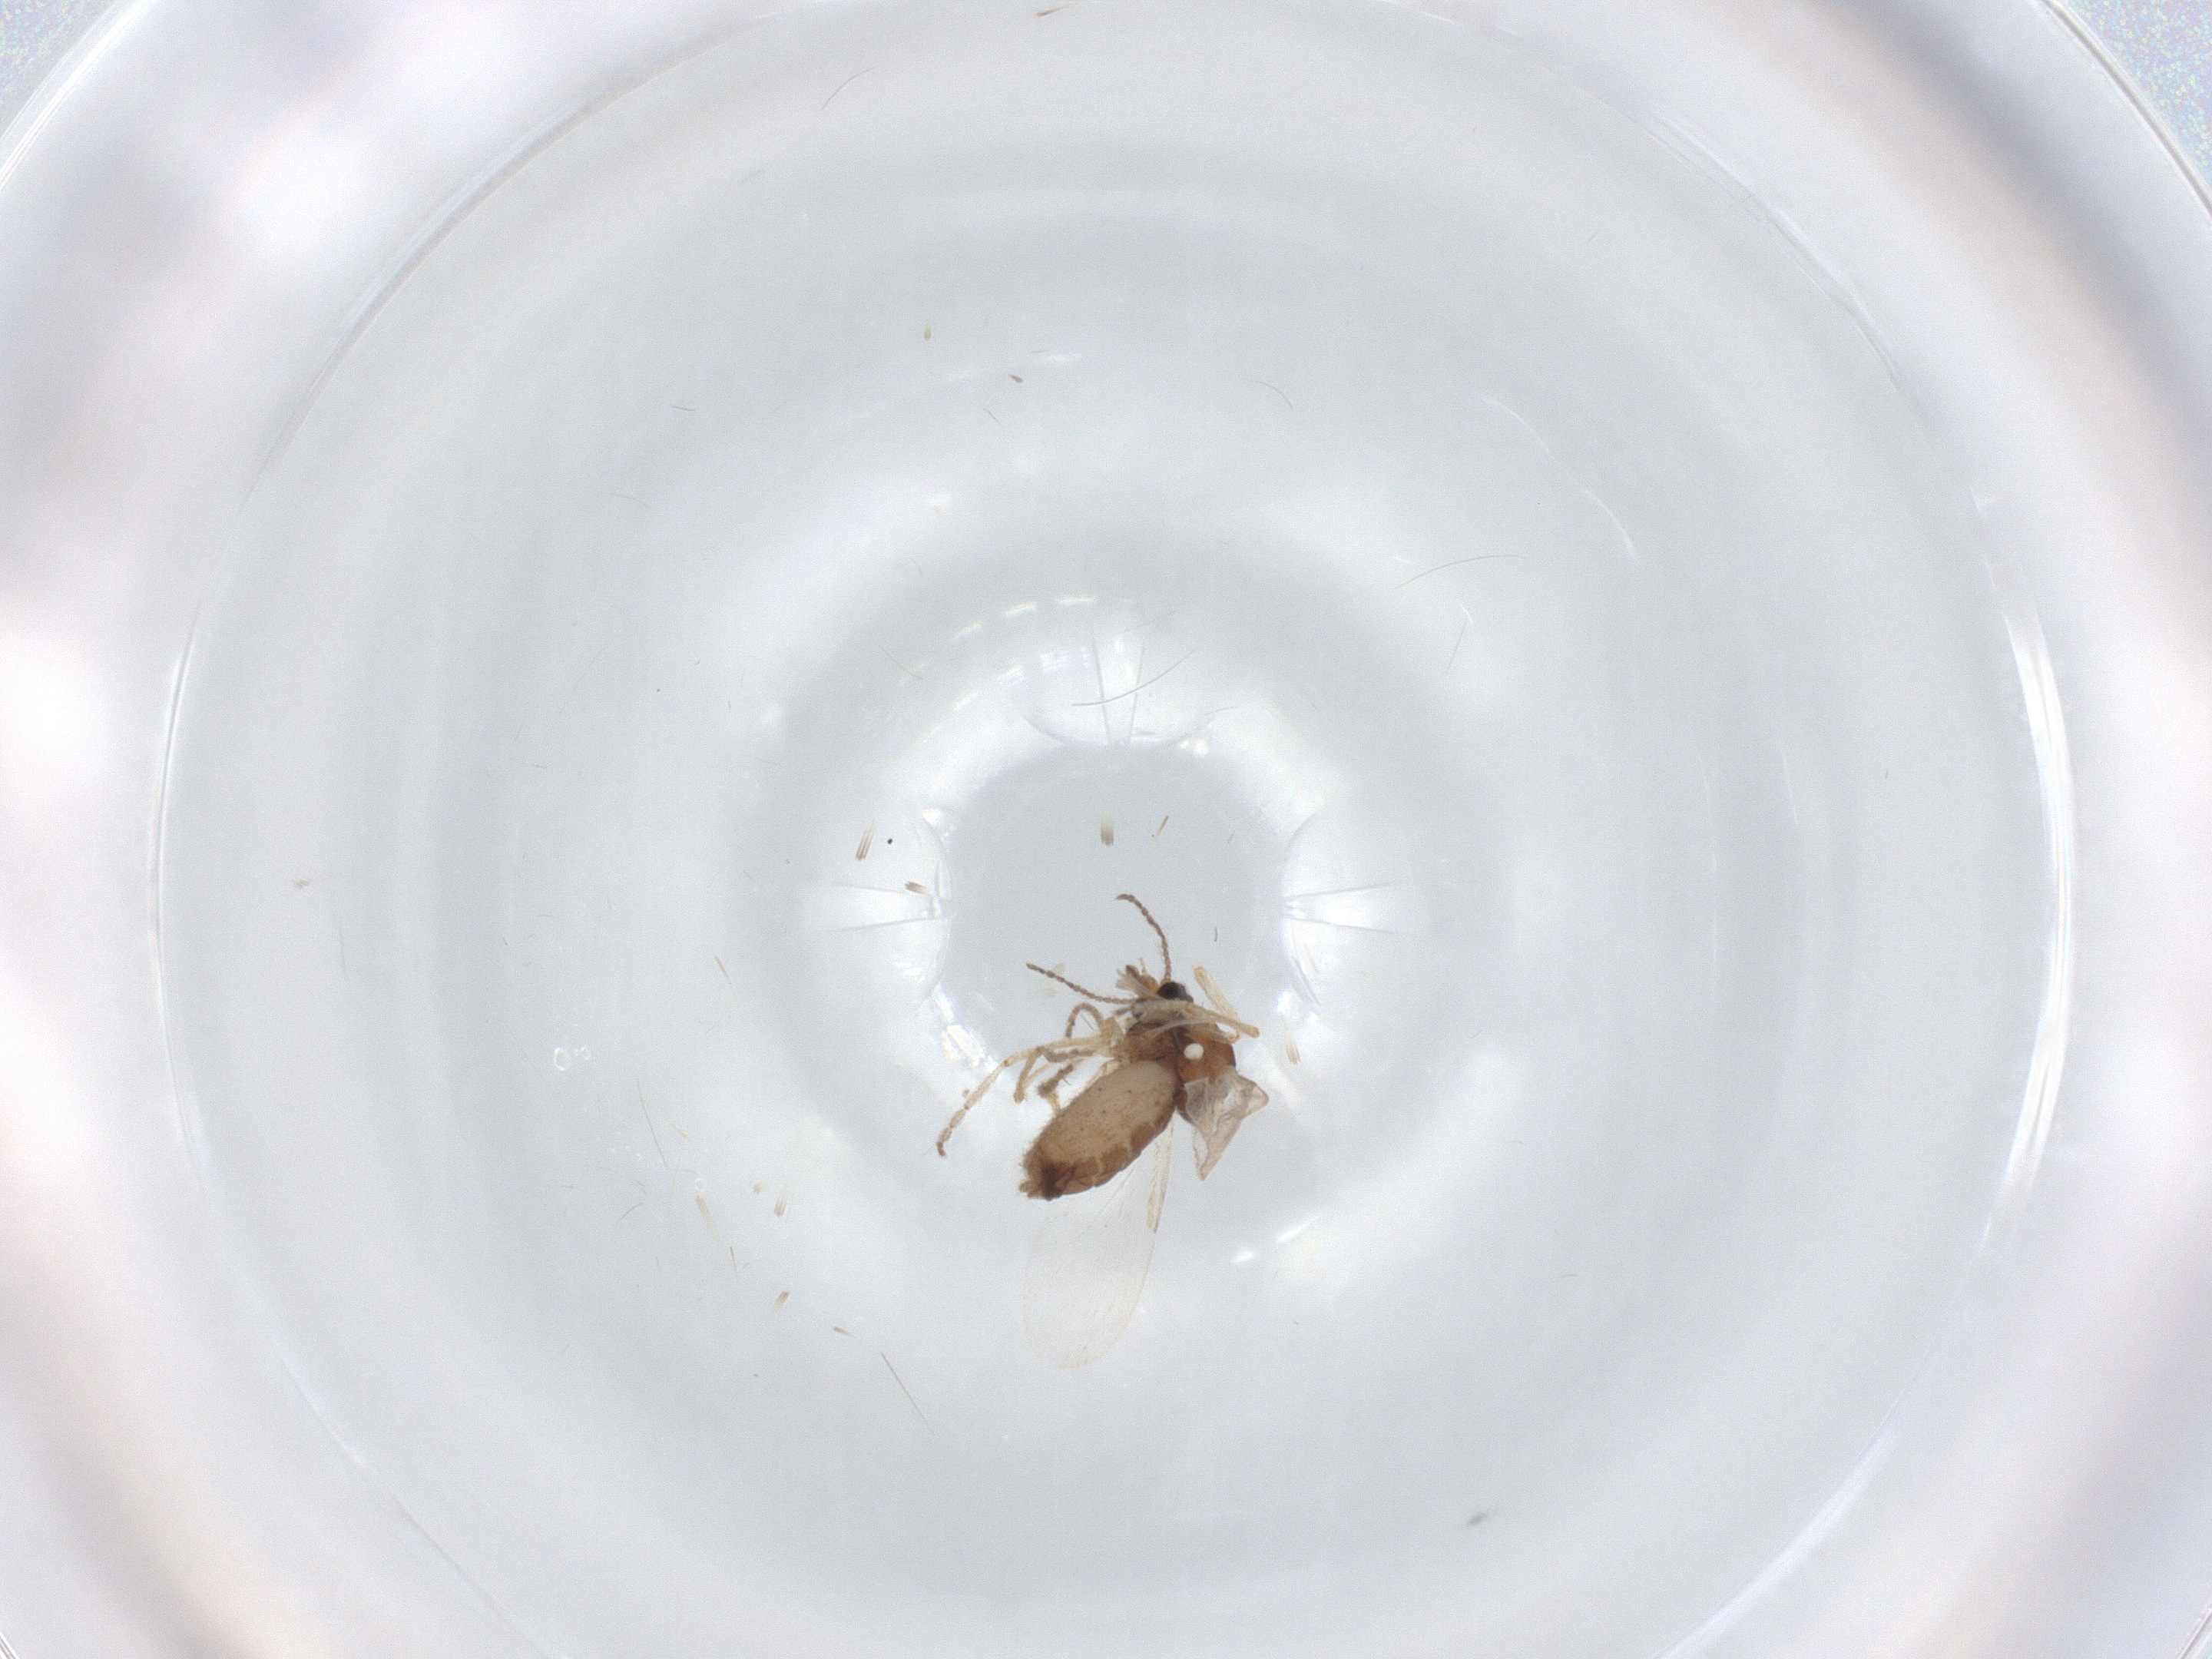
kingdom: Animalia
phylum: Arthropoda
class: Insecta
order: Diptera
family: Ceratopogonidae
